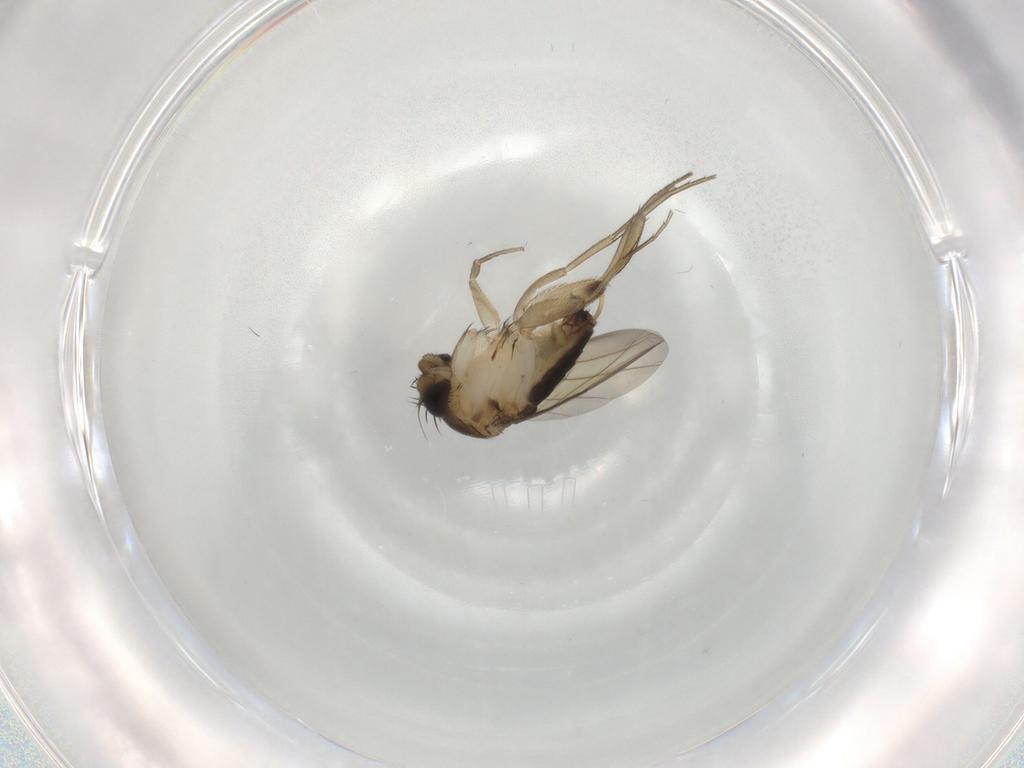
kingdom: Animalia
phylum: Arthropoda
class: Insecta
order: Diptera
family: Phoridae
